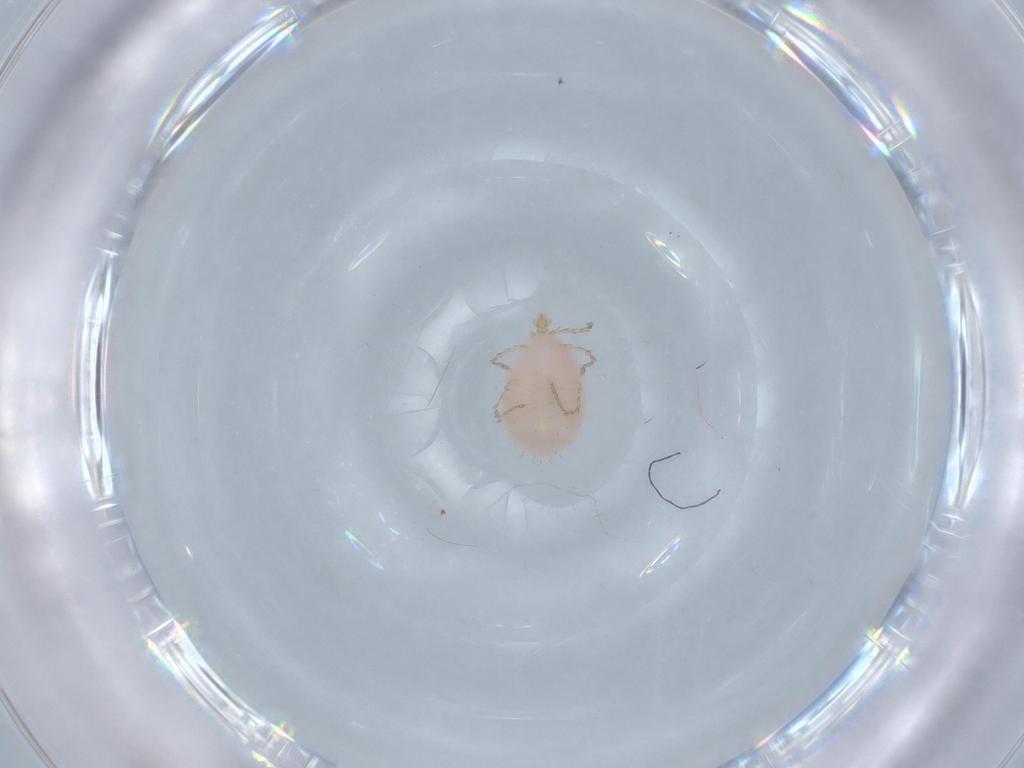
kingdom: Animalia
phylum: Arthropoda
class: Arachnida
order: Trombidiformes
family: Erythraeidae
